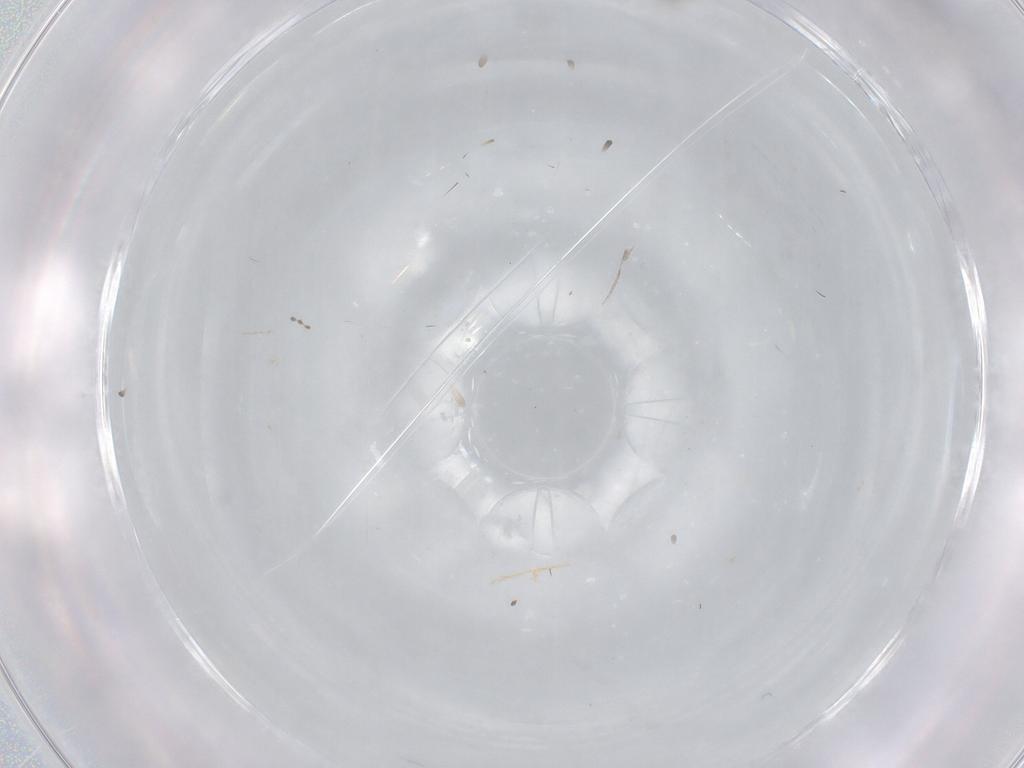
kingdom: Animalia
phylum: Arthropoda
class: Insecta
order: Diptera
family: Cecidomyiidae
